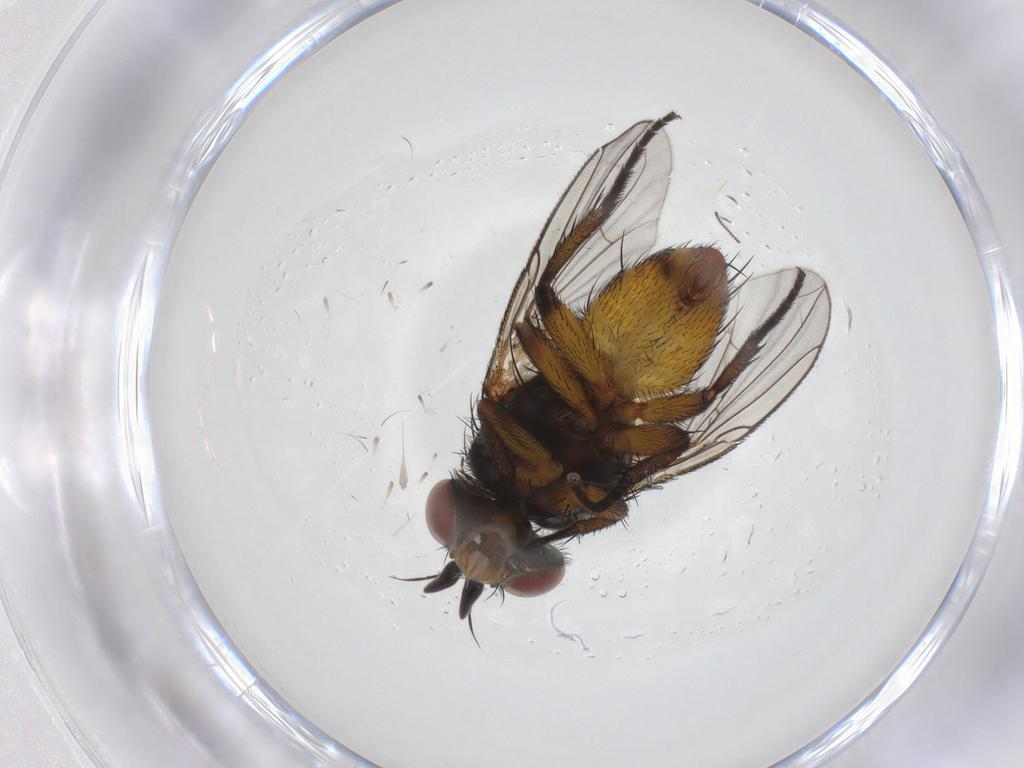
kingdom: Animalia
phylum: Arthropoda
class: Insecta
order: Diptera
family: Tachinidae
